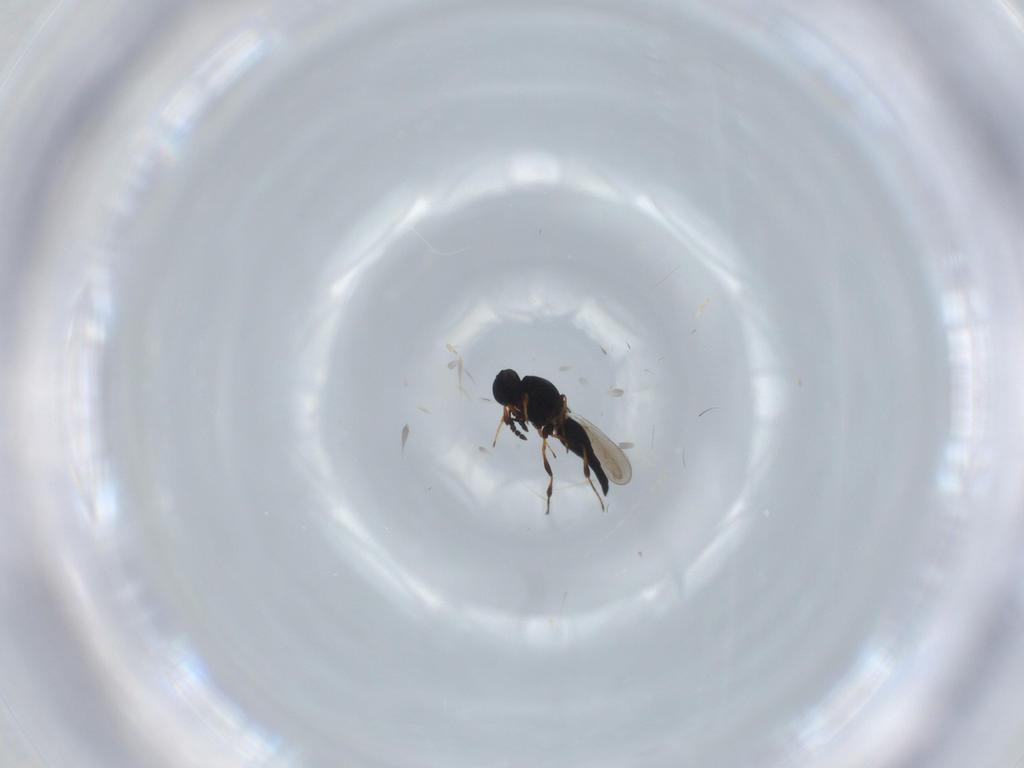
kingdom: Animalia
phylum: Arthropoda
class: Insecta
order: Hymenoptera
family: Platygastridae
